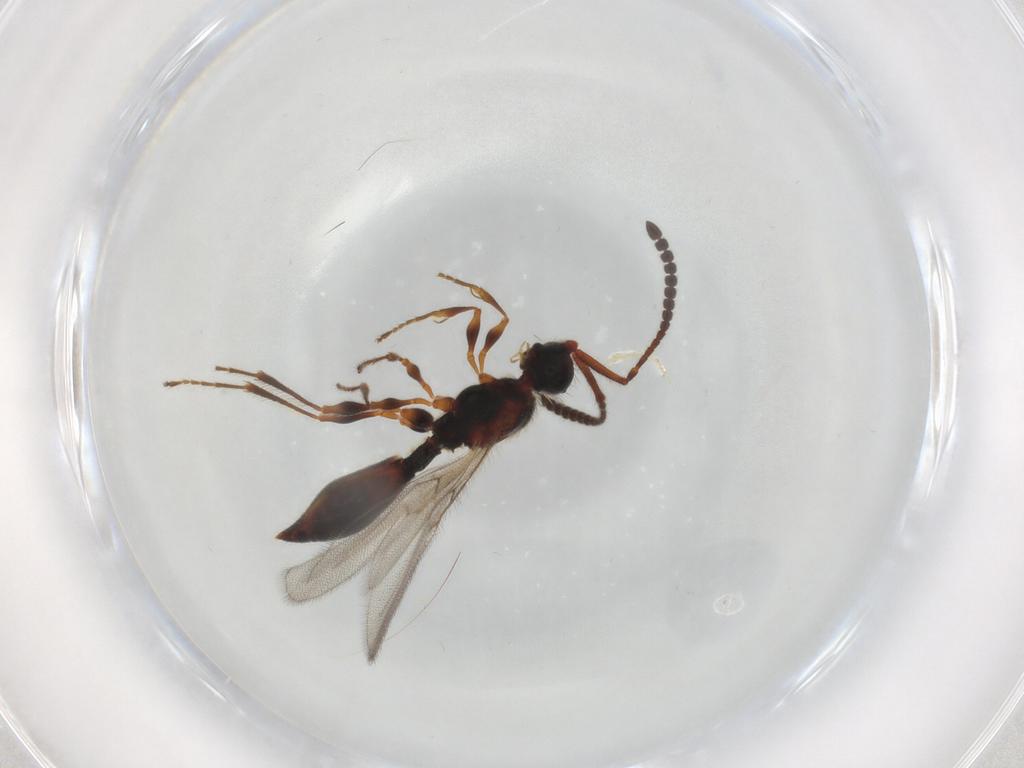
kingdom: Animalia
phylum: Arthropoda
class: Insecta
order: Hymenoptera
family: Diapriidae
